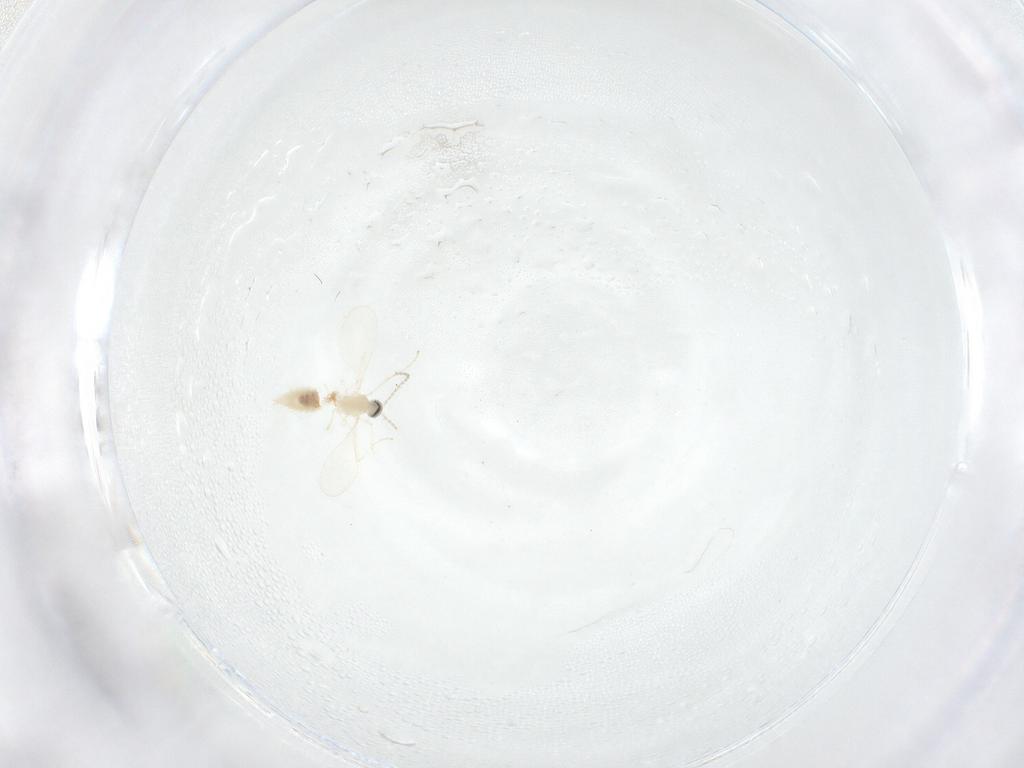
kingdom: Animalia
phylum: Arthropoda
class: Insecta
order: Diptera
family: Cecidomyiidae
